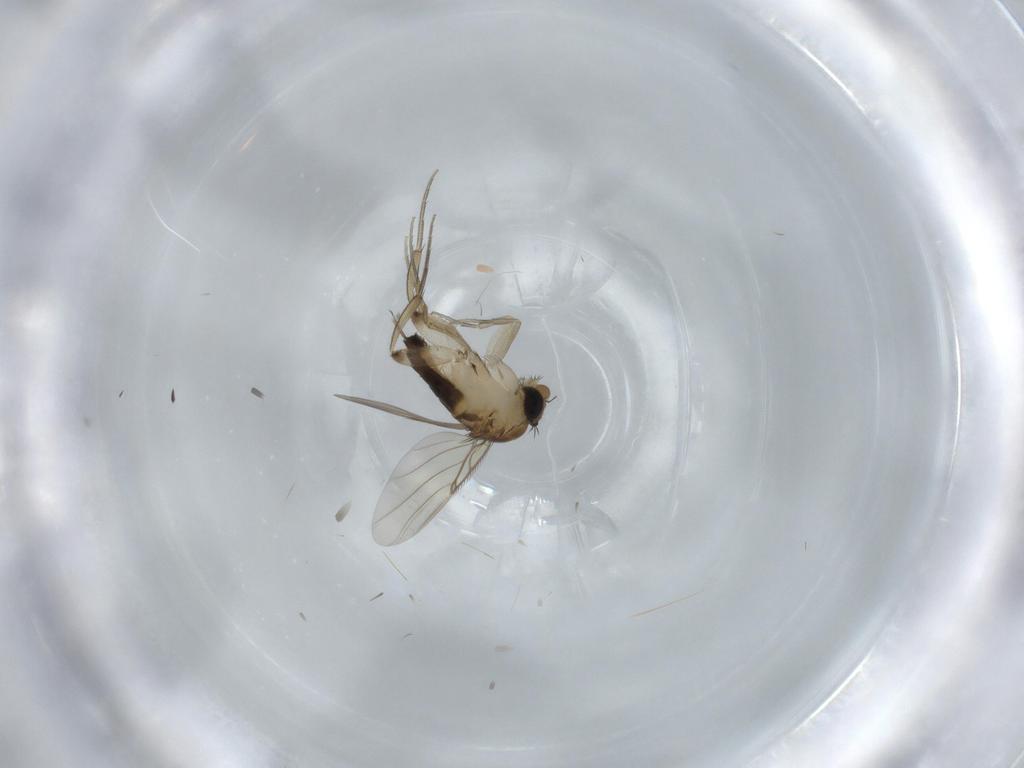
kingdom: Animalia
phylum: Arthropoda
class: Insecta
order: Diptera
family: Phoridae
